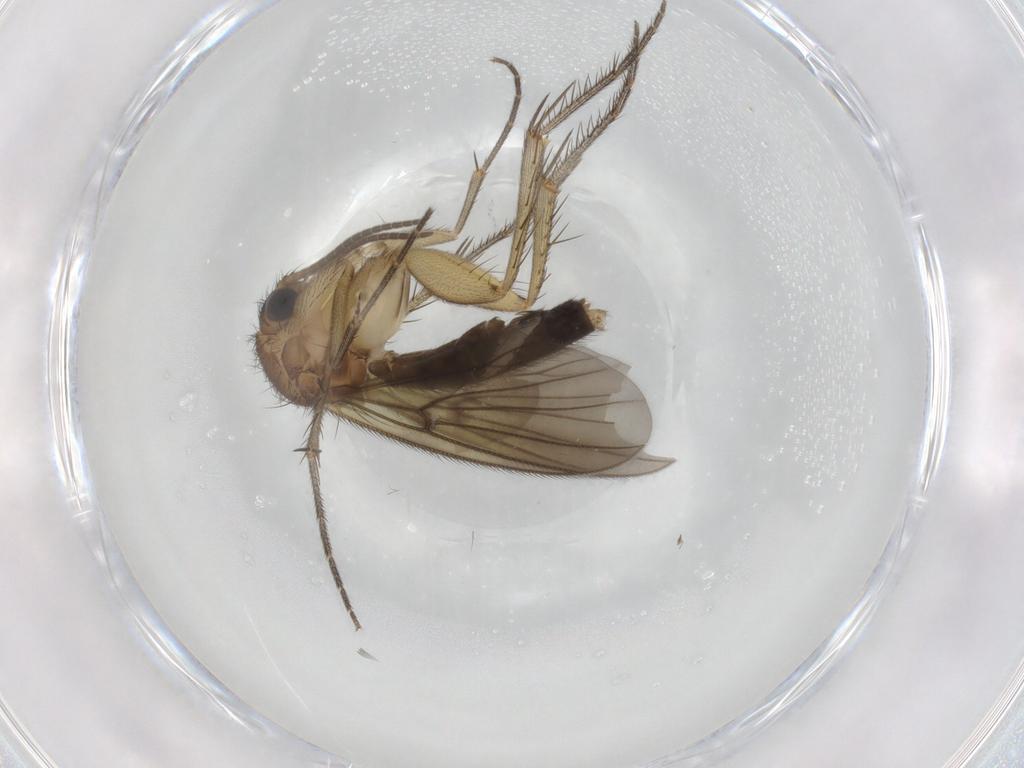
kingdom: Animalia
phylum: Arthropoda
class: Insecta
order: Diptera
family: Mycetophilidae
